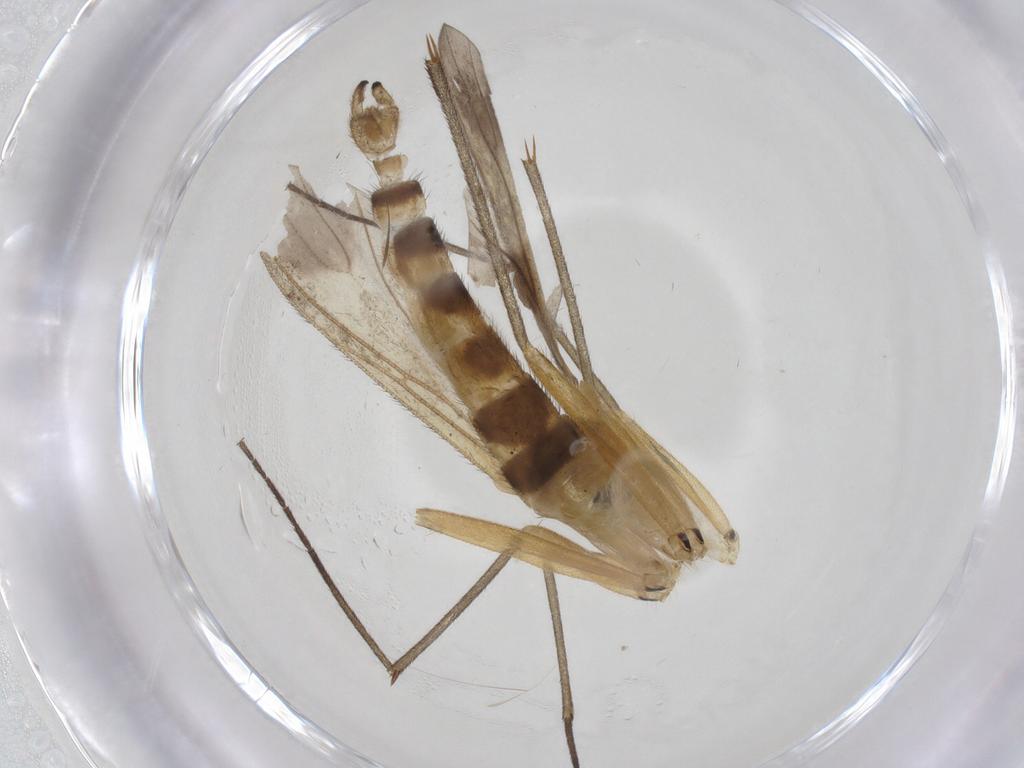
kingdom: Animalia
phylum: Arthropoda
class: Insecta
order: Diptera
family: Sciaridae
